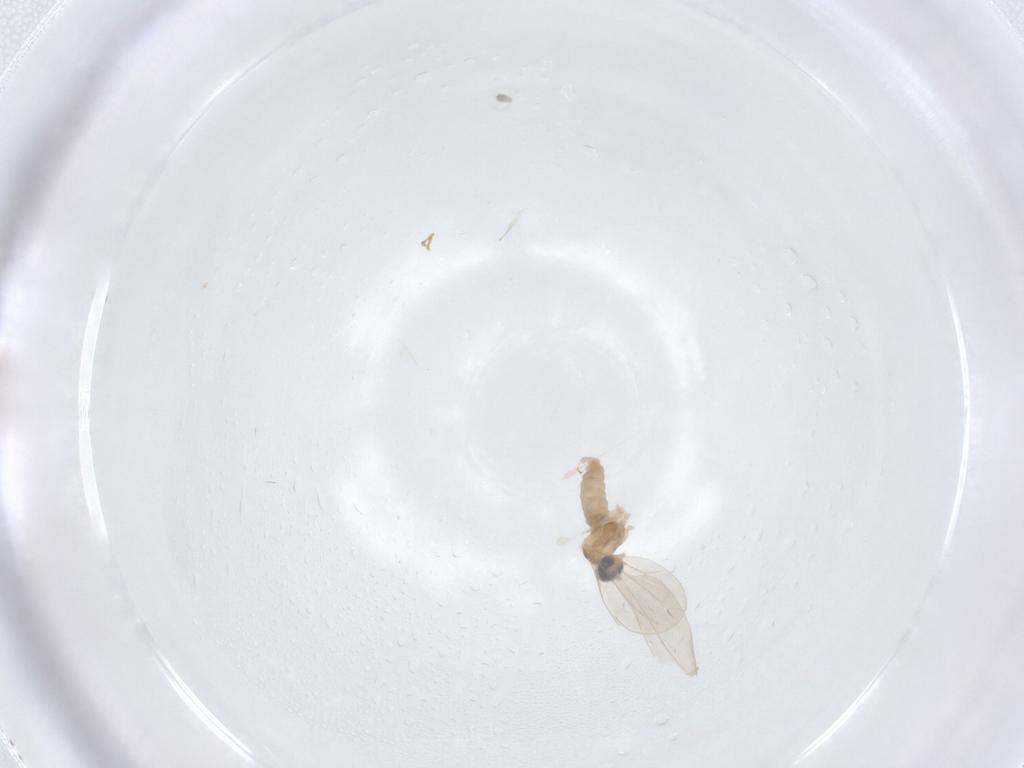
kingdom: Animalia
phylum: Arthropoda
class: Insecta
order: Diptera
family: Cecidomyiidae
